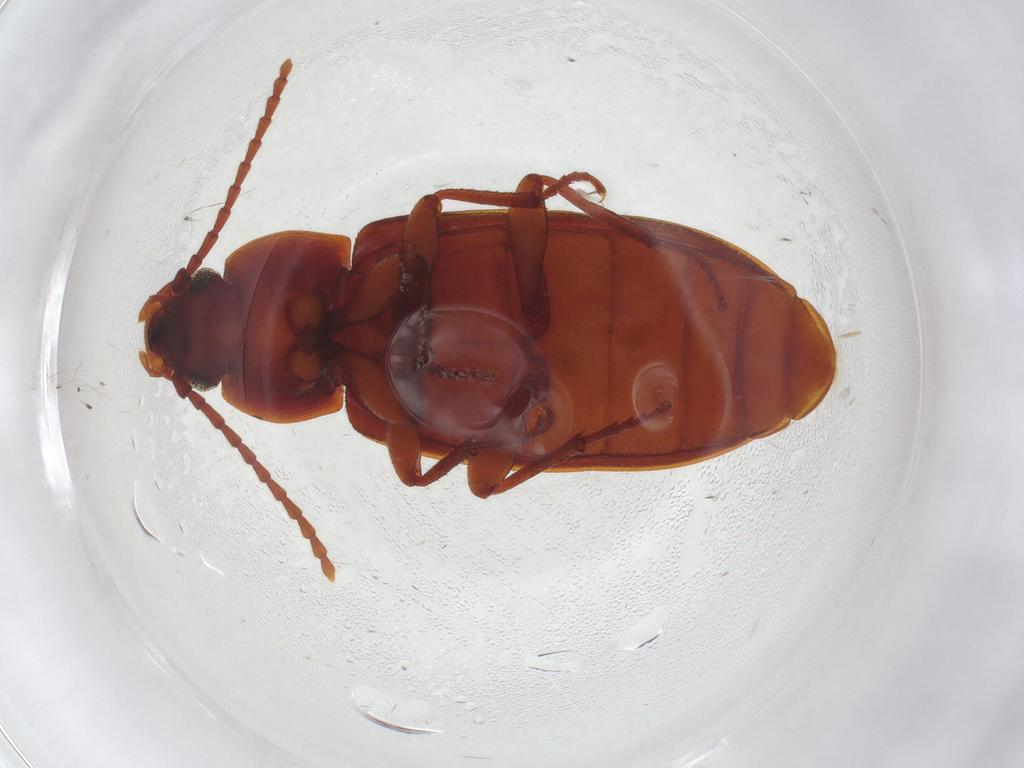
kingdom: Animalia
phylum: Arthropoda
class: Insecta
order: Coleoptera
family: Tenebrionidae
